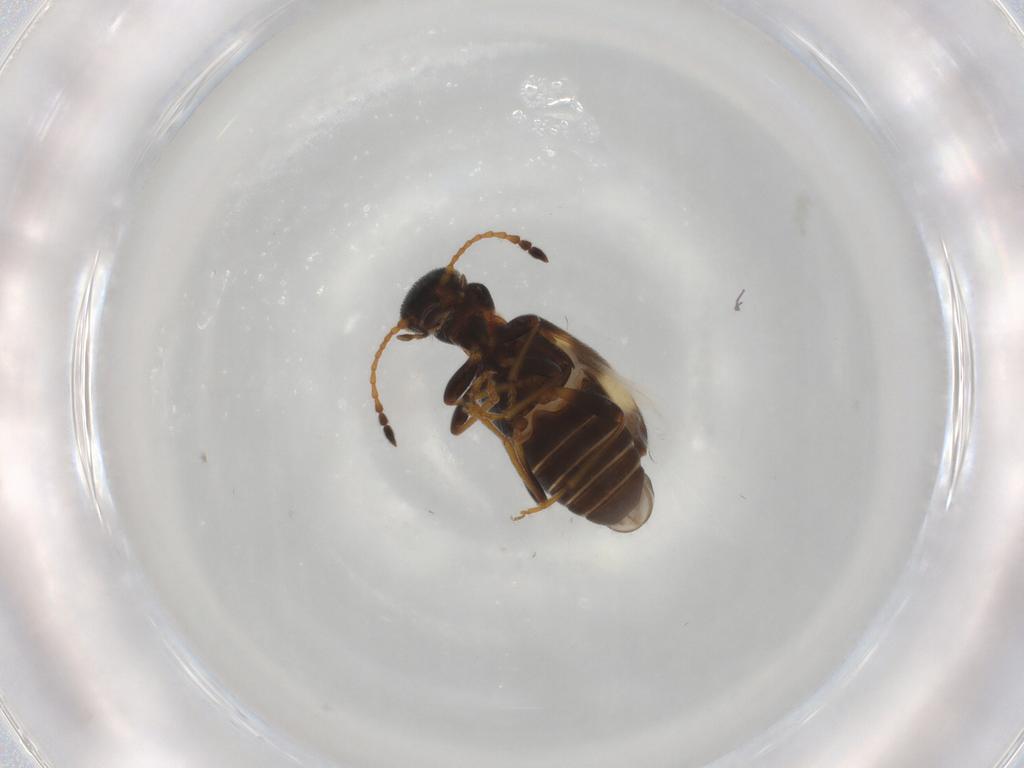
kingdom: Animalia
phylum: Arthropoda
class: Insecta
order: Coleoptera
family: Anthicidae
